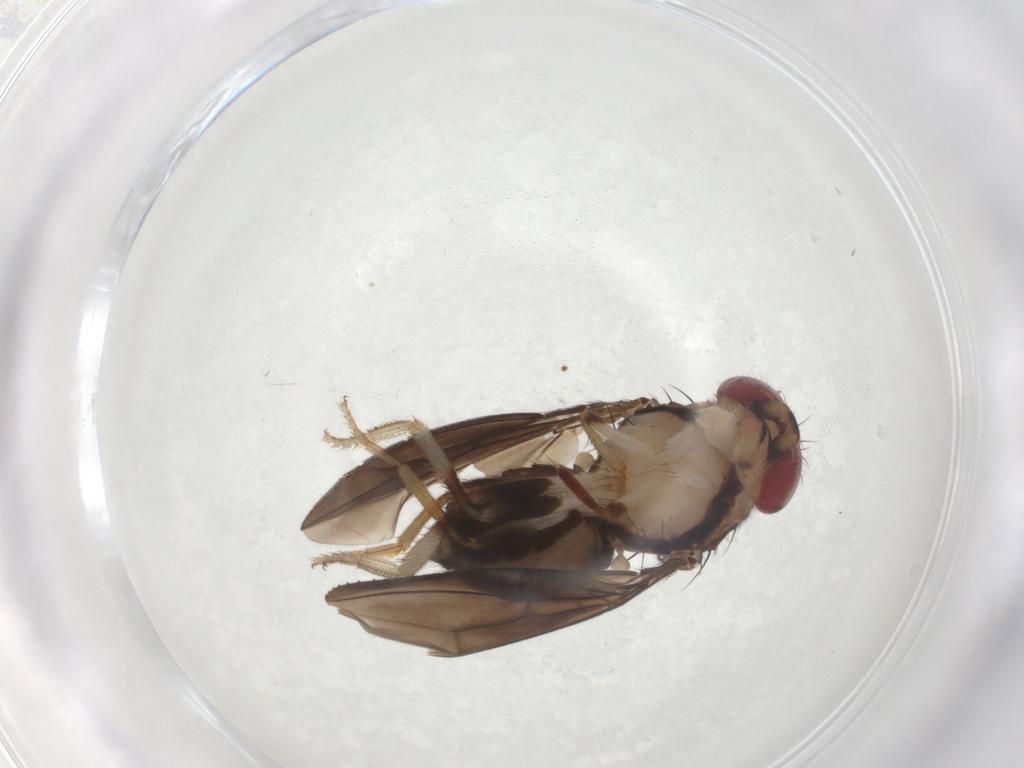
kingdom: Animalia
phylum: Arthropoda
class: Insecta
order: Diptera
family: Drosophilidae
